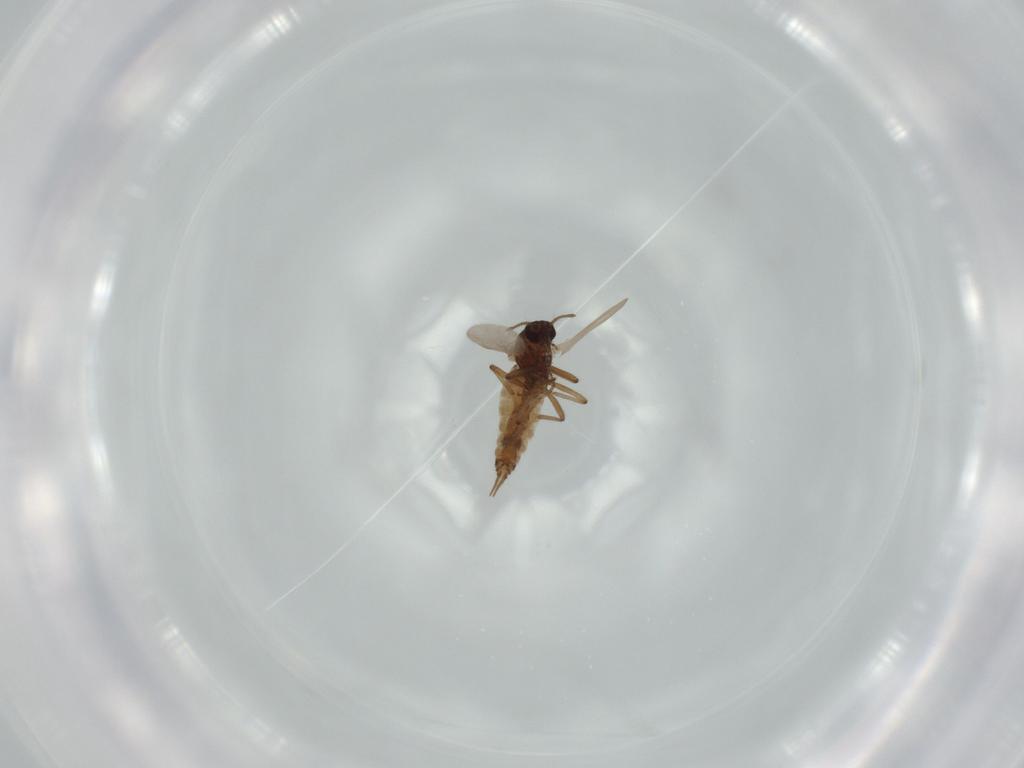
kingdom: Animalia
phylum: Arthropoda
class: Insecta
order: Diptera
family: Ceratopogonidae
